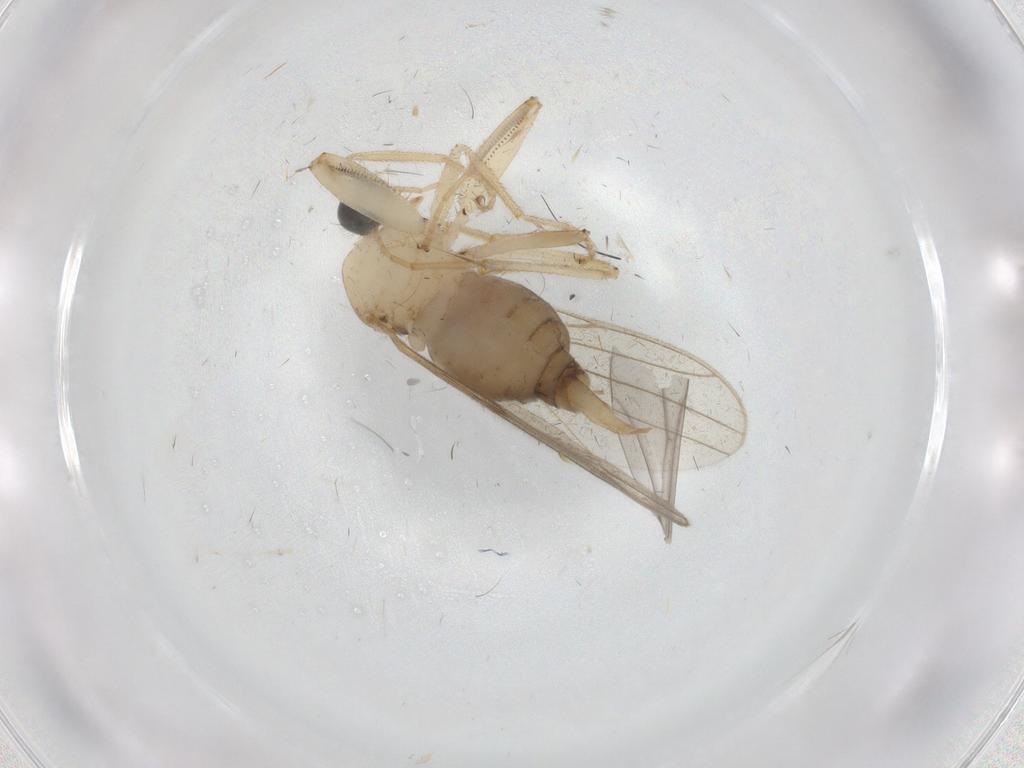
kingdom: Animalia
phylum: Arthropoda
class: Insecta
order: Diptera
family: Hybotidae
